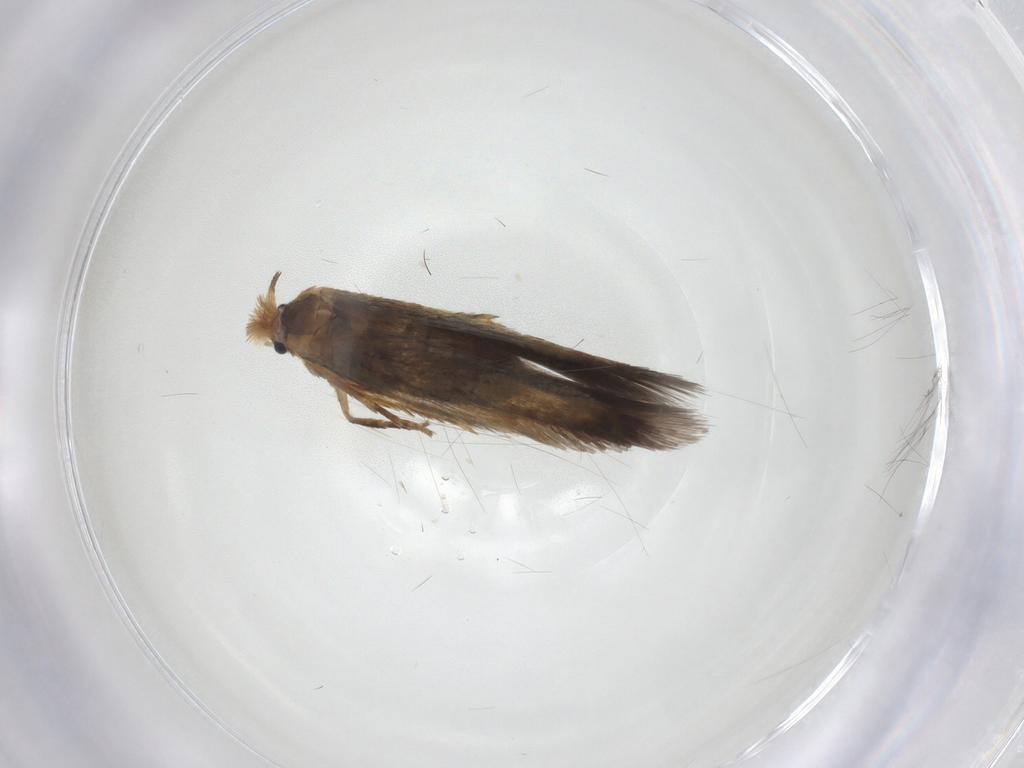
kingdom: Animalia
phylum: Arthropoda
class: Insecta
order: Lepidoptera
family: Nepticulidae
